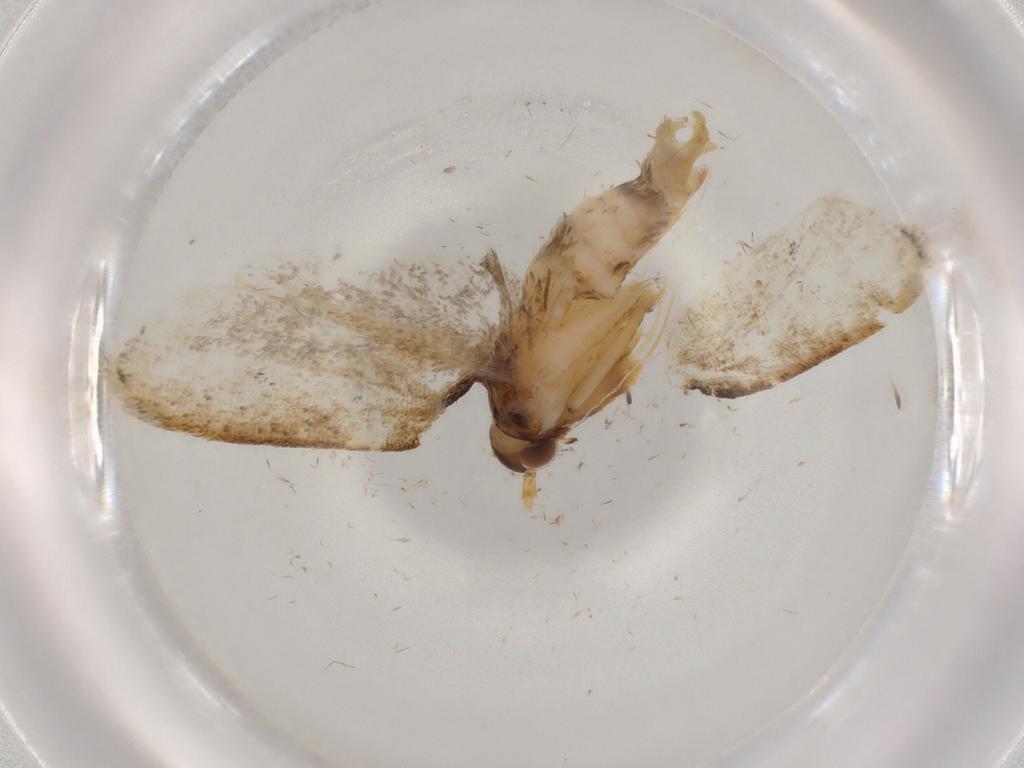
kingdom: Animalia
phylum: Arthropoda
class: Insecta
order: Lepidoptera
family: Lecithoceridae
